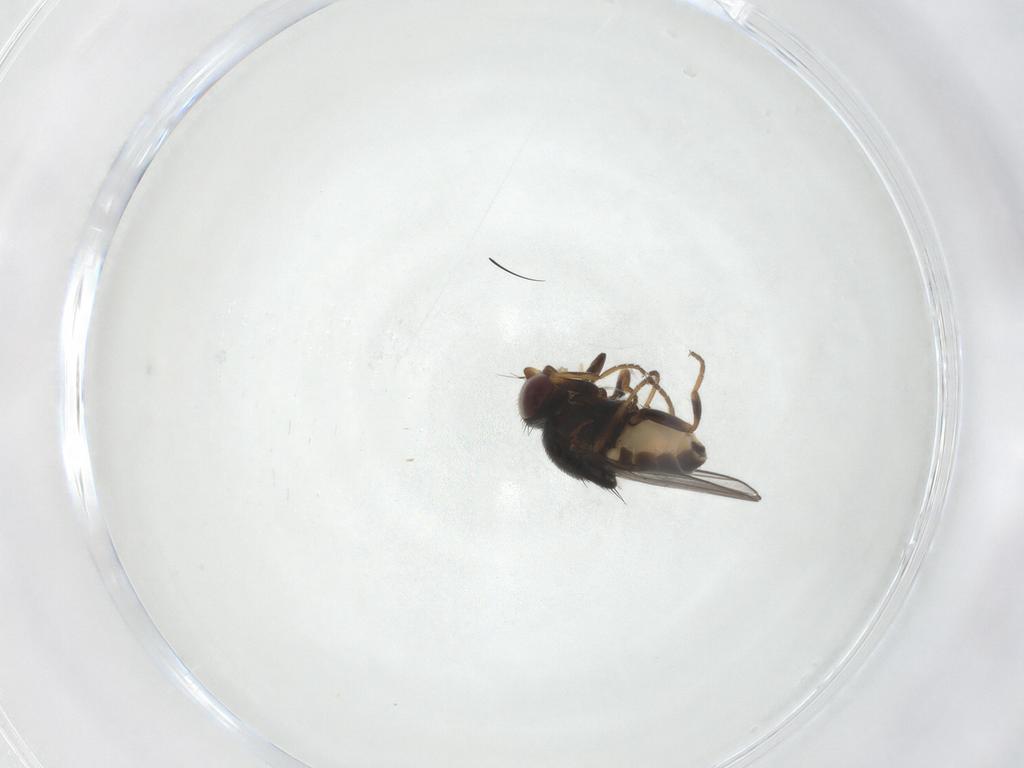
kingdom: Animalia
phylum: Arthropoda
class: Insecta
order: Diptera
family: Chloropidae
